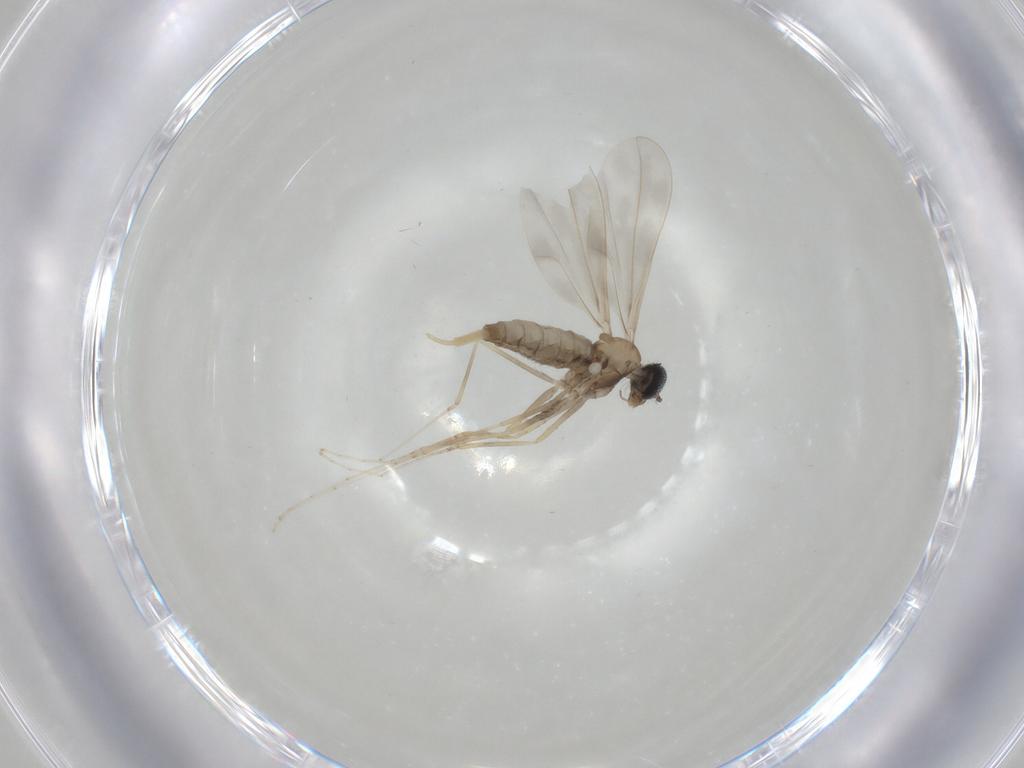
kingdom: Animalia
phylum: Arthropoda
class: Insecta
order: Diptera
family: Cecidomyiidae
